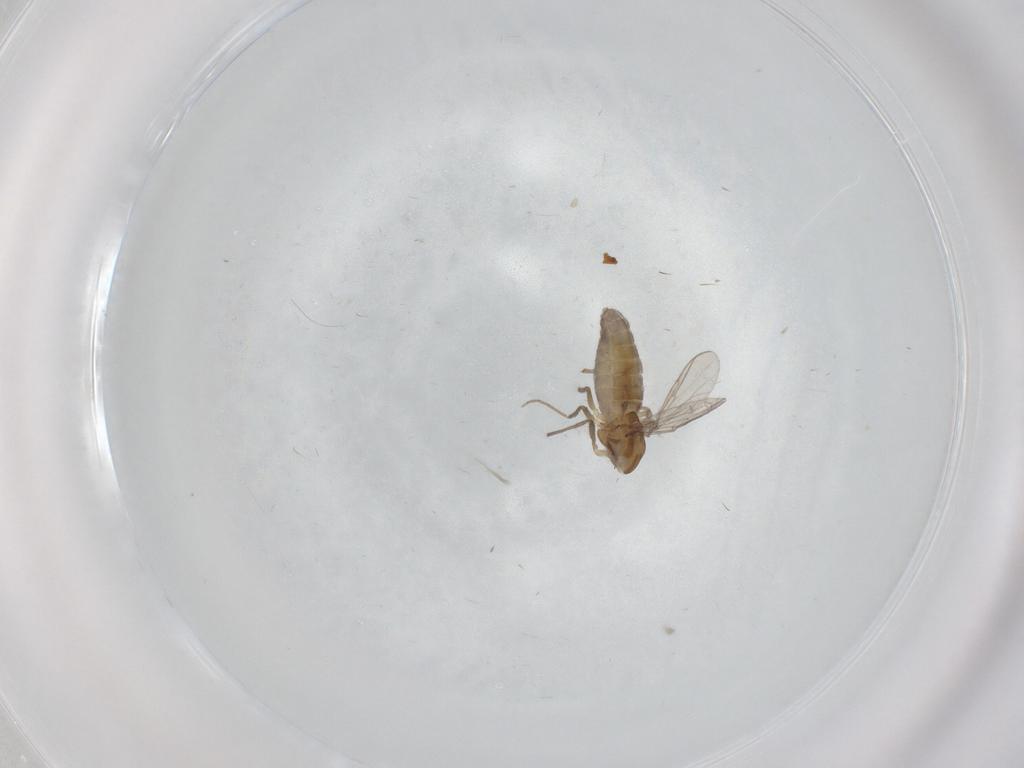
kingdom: Animalia
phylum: Arthropoda
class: Insecta
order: Diptera
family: Chironomidae
